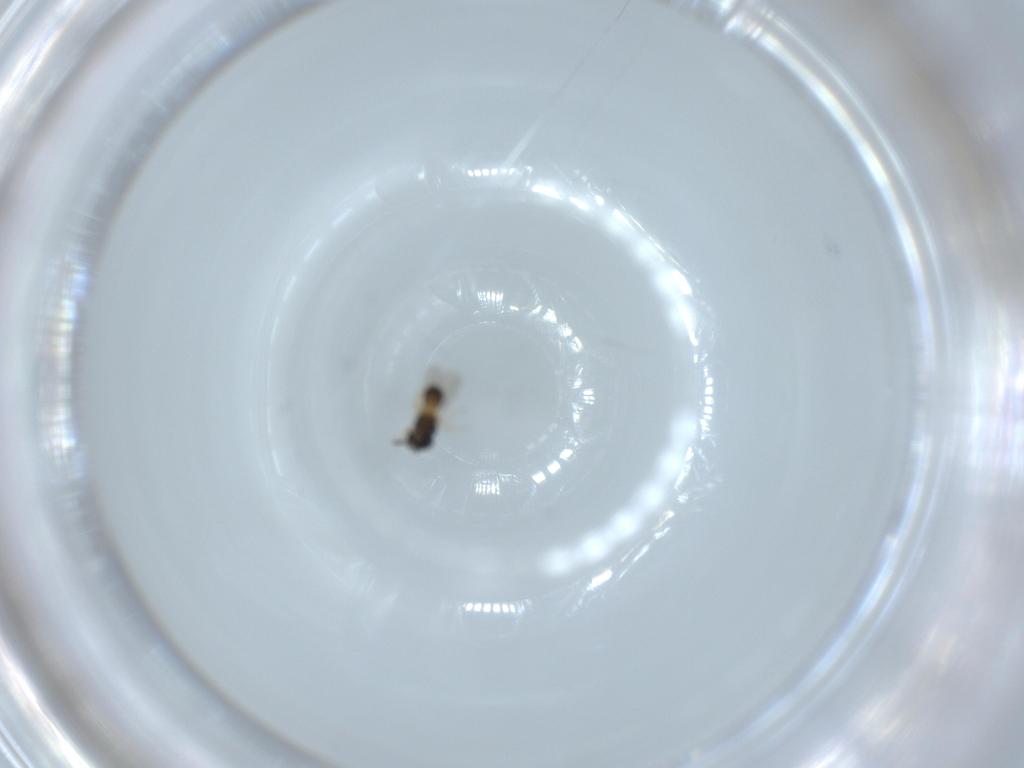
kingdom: Animalia
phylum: Arthropoda
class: Insecta
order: Hymenoptera
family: Scelionidae
